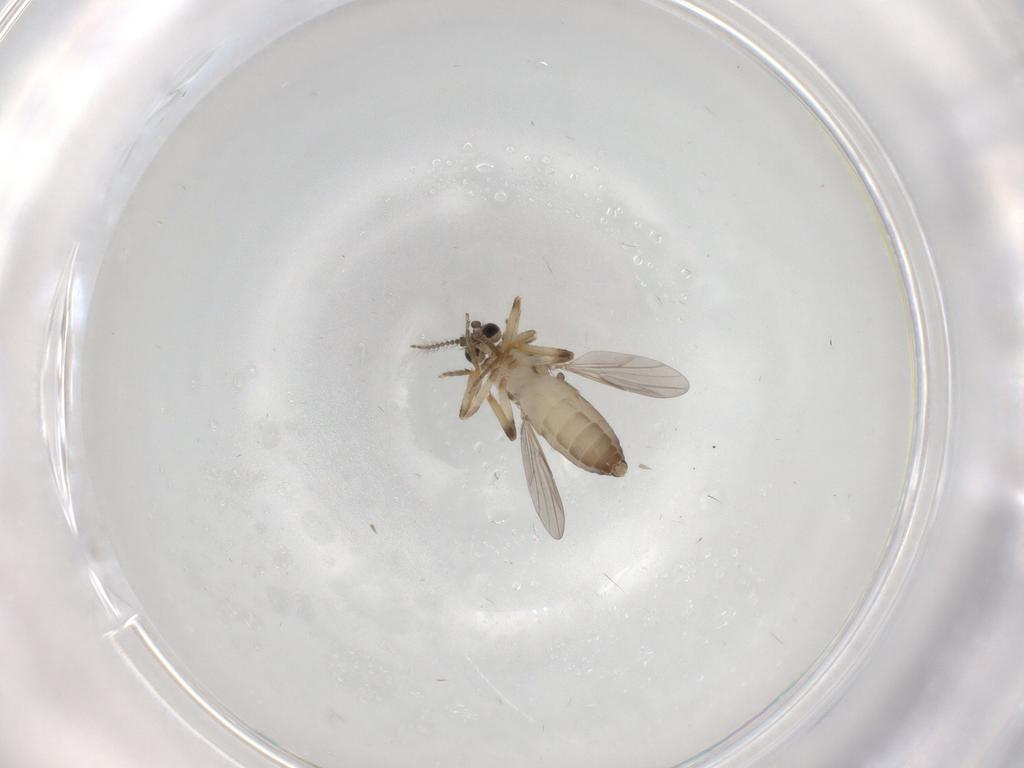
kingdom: Animalia
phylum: Arthropoda
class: Insecta
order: Diptera
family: Ceratopogonidae
